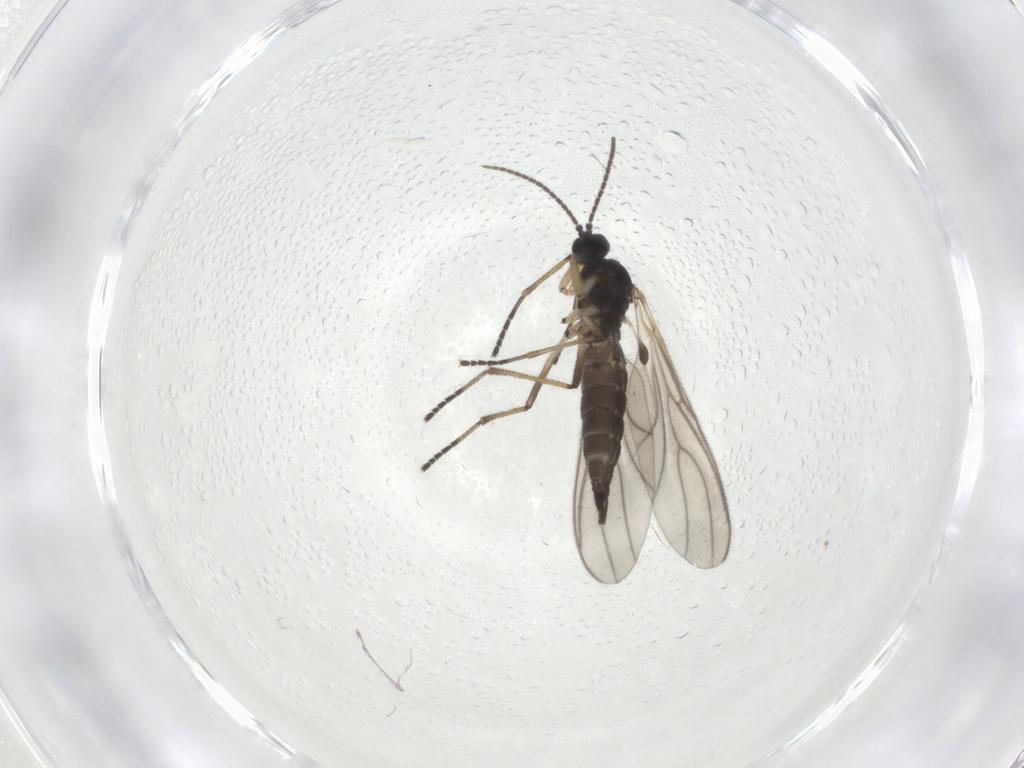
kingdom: Animalia
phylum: Arthropoda
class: Insecta
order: Diptera
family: Sciaridae
